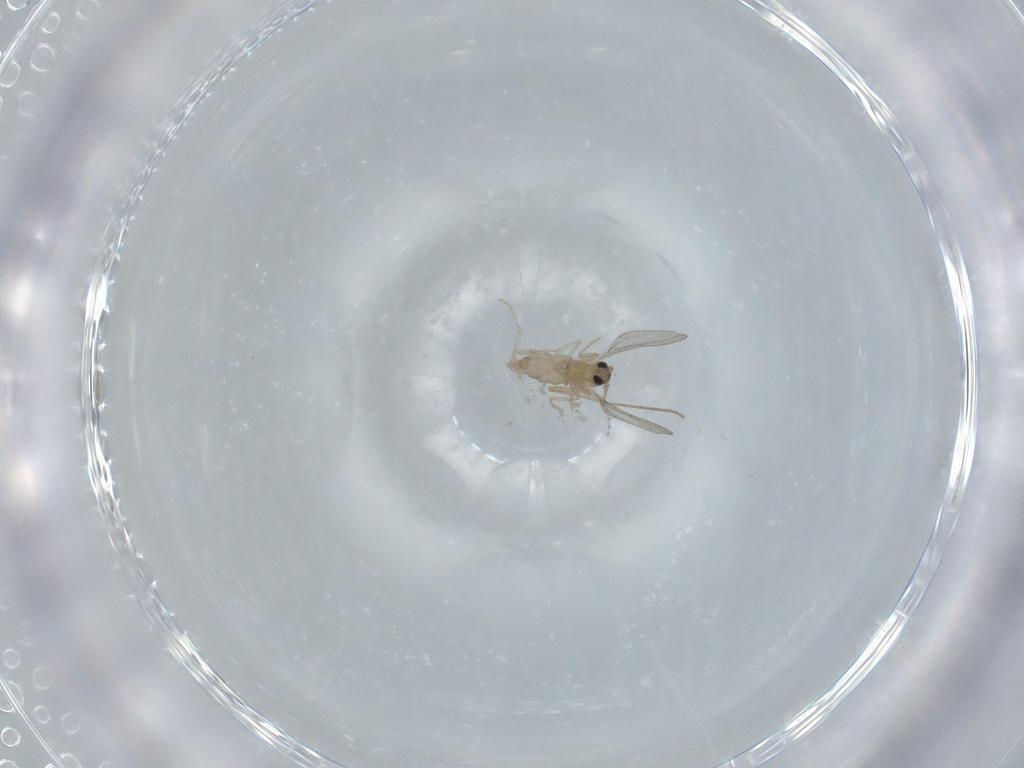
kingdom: Animalia
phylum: Arthropoda
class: Insecta
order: Diptera
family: Cecidomyiidae
